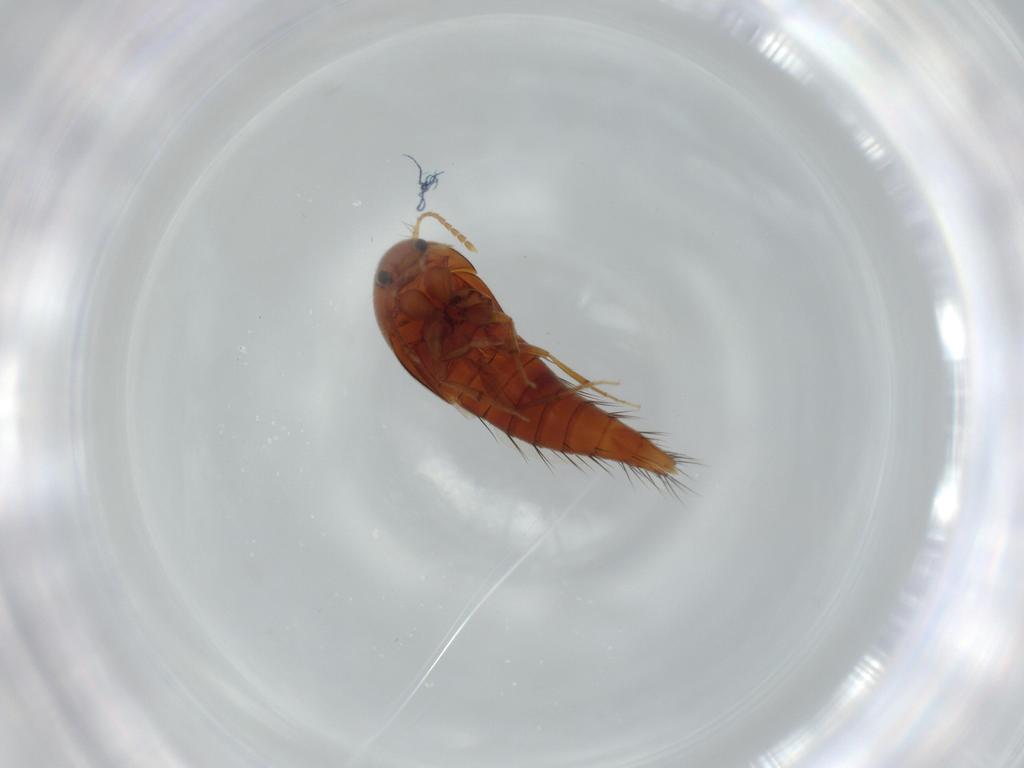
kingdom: Animalia
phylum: Arthropoda
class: Insecta
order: Coleoptera
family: Staphylinidae
